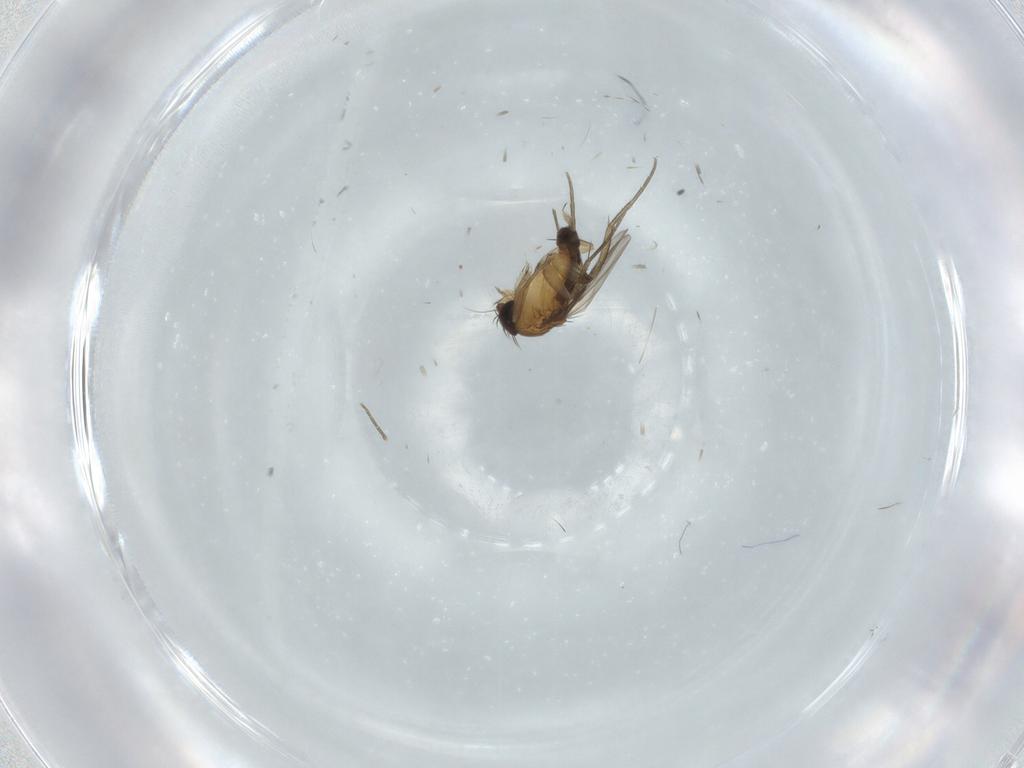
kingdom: Animalia
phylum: Arthropoda
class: Insecta
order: Diptera
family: Phoridae
